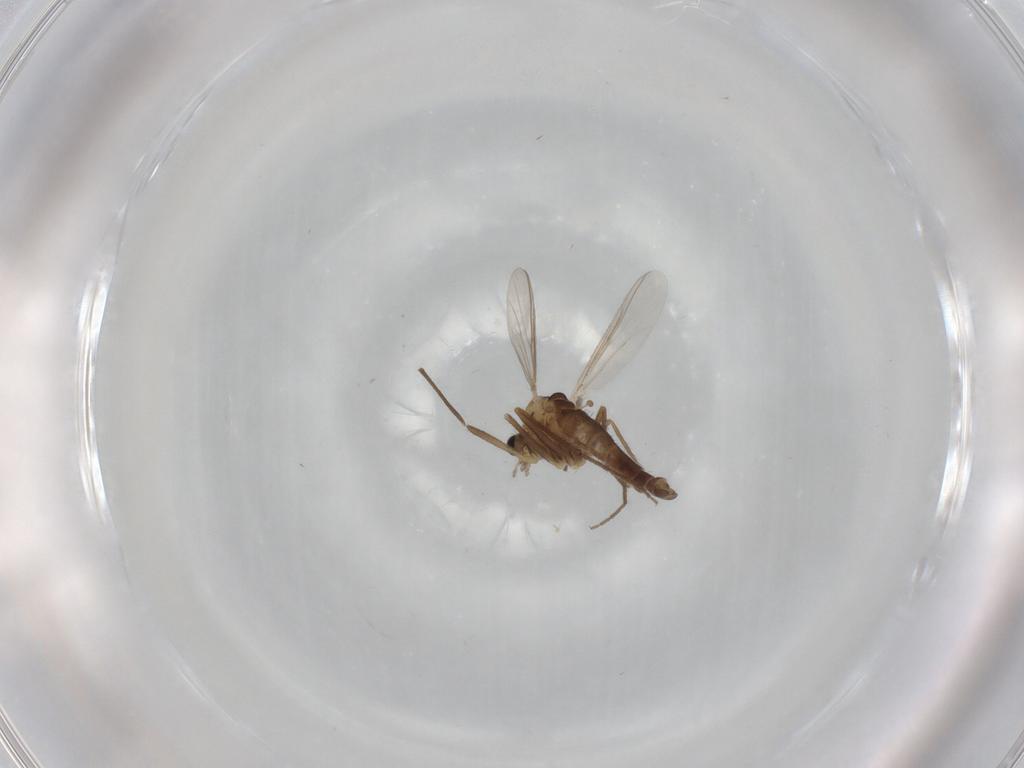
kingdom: Animalia
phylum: Arthropoda
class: Insecta
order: Diptera
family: Chironomidae
